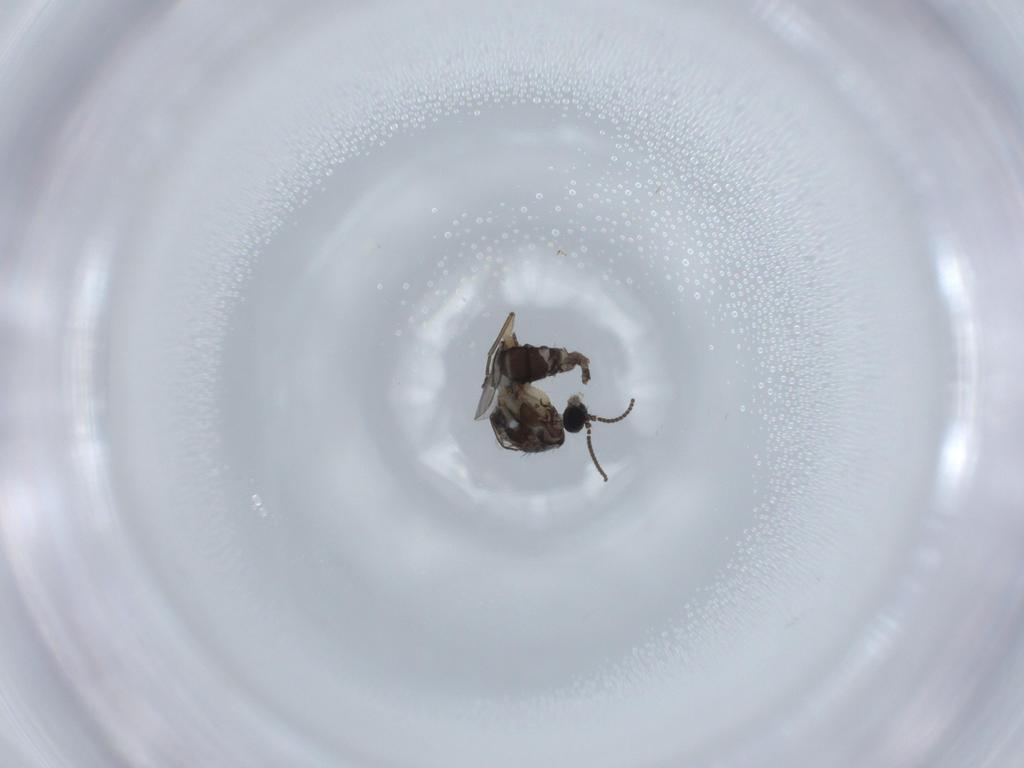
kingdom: Animalia
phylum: Arthropoda
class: Insecta
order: Diptera
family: Sciaridae
